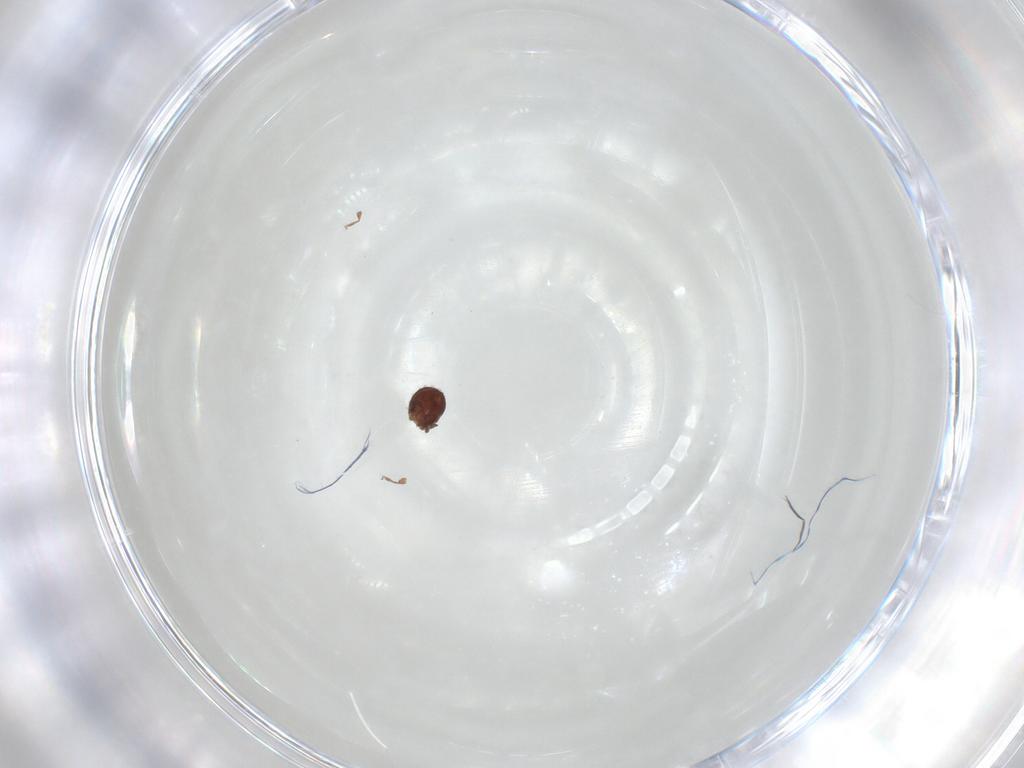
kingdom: Animalia
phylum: Arthropoda
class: Arachnida
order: Sarcoptiformes
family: Scheloribatidae
